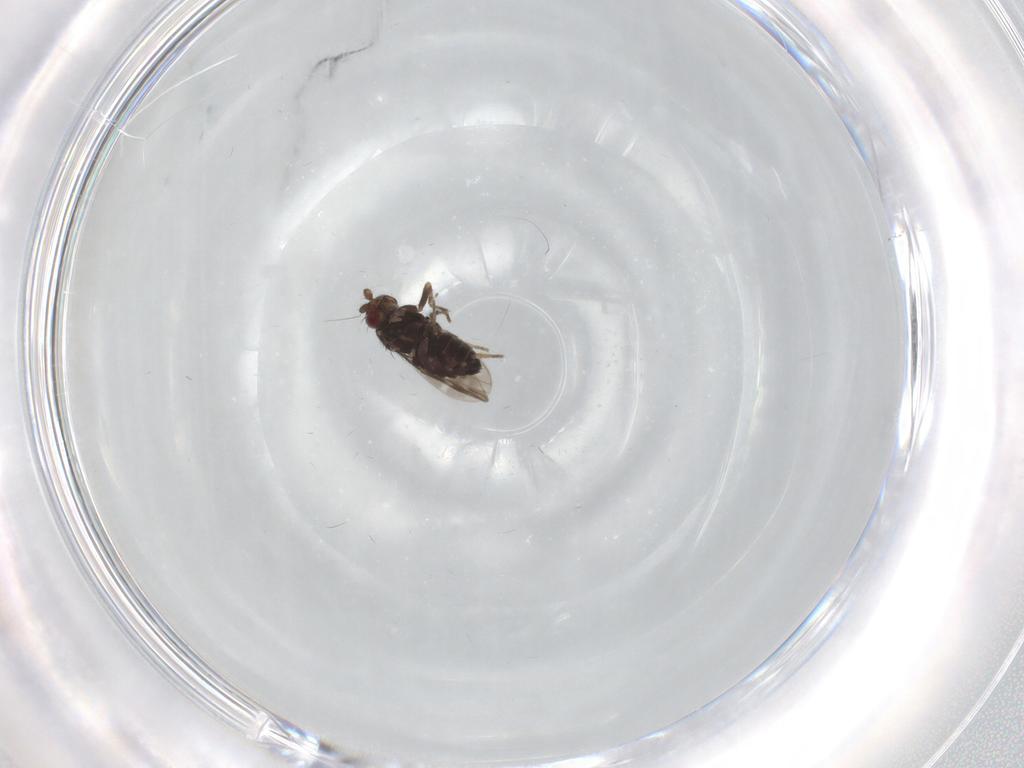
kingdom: Animalia
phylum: Arthropoda
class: Insecta
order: Diptera
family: Sphaeroceridae
